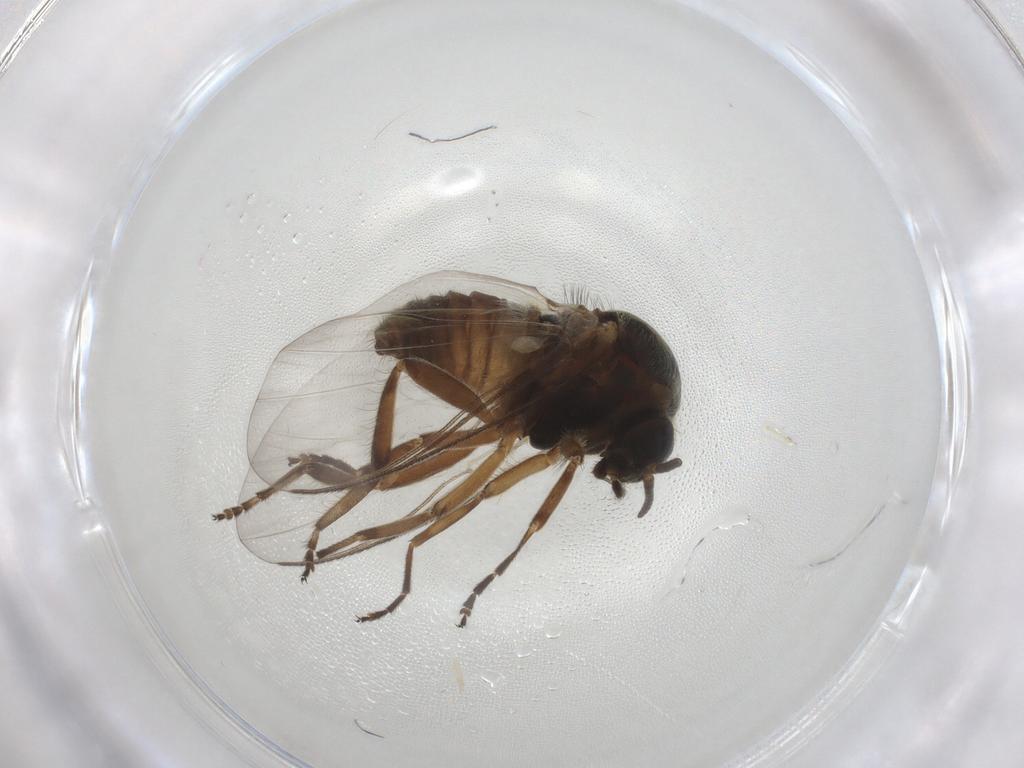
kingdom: Animalia
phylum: Arthropoda
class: Insecta
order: Diptera
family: Simuliidae
